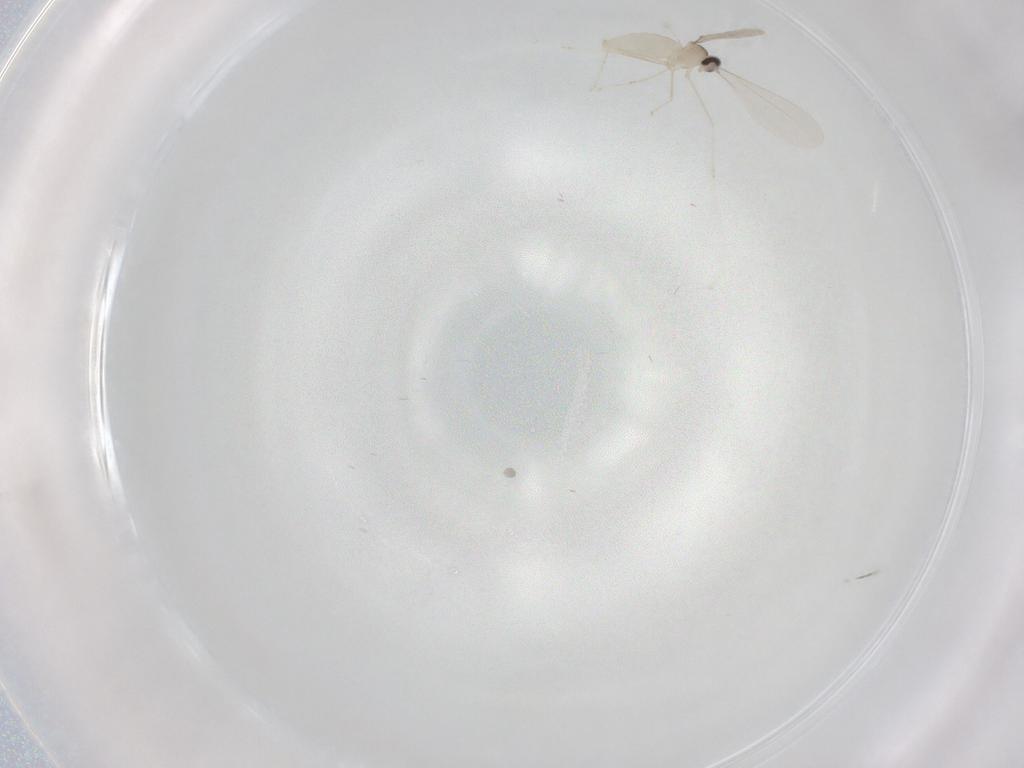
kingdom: Animalia
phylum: Arthropoda
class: Insecta
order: Diptera
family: Cecidomyiidae
